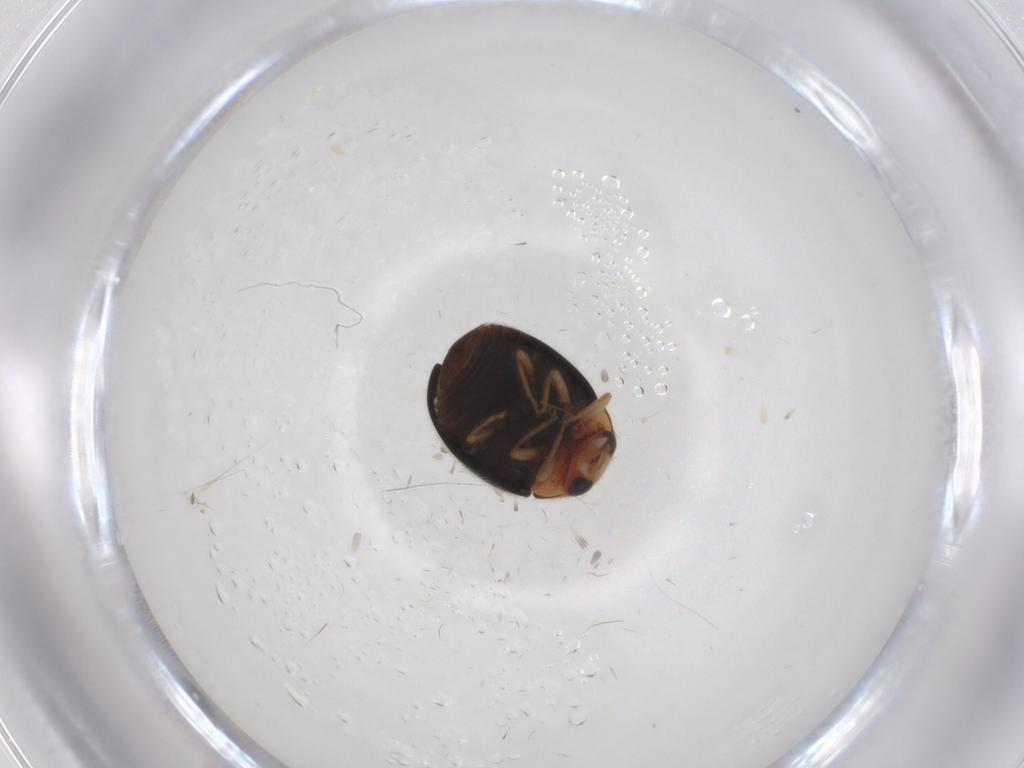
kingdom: Animalia
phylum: Arthropoda
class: Insecta
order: Coleoptera
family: Coccinellidae
